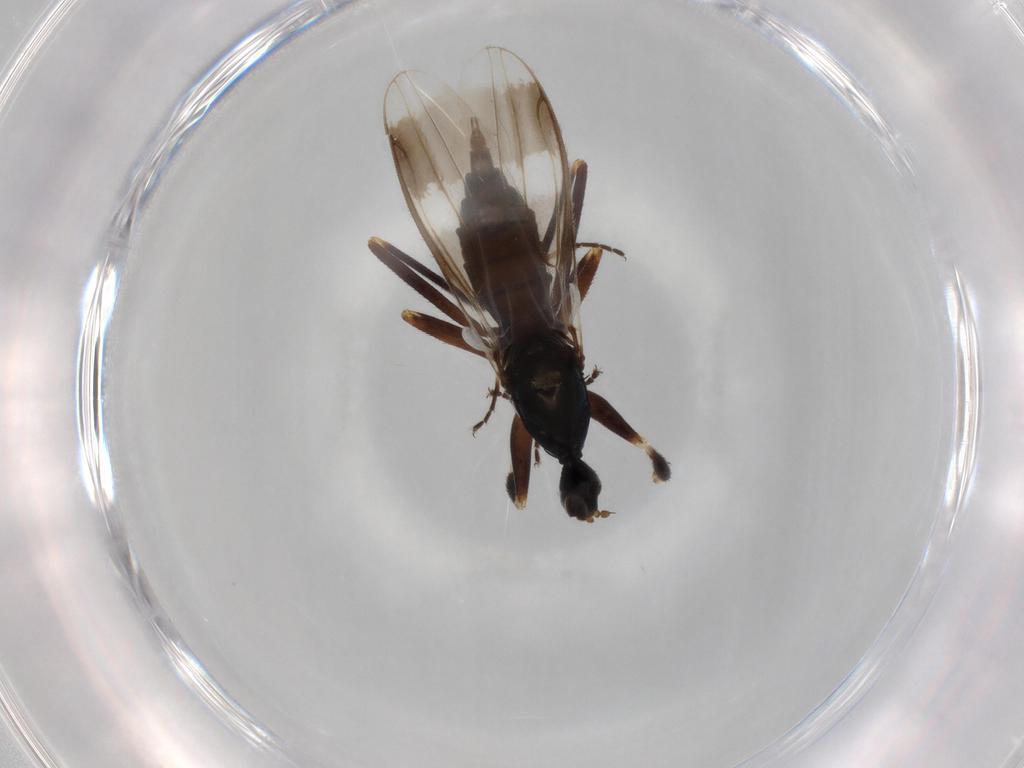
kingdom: Animalia
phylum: Arthropoda
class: Insecta
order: Diptera
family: Hybotidae
